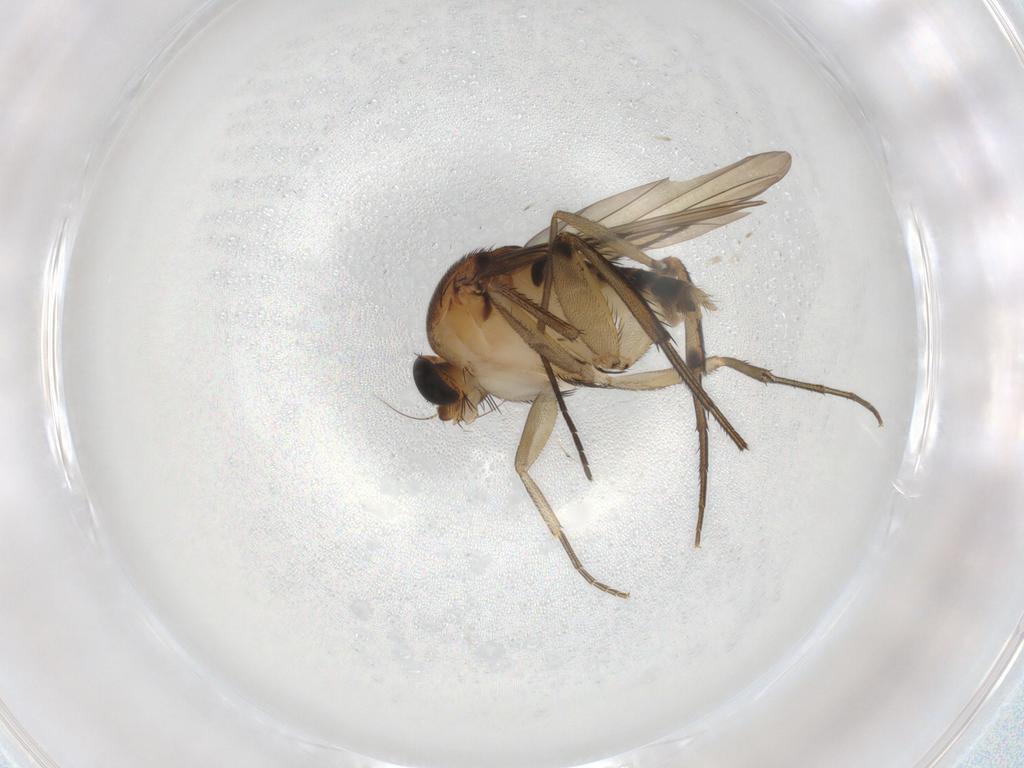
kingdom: Animalia
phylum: Arthropoda
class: Insecta
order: Diptera
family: Phoridae
